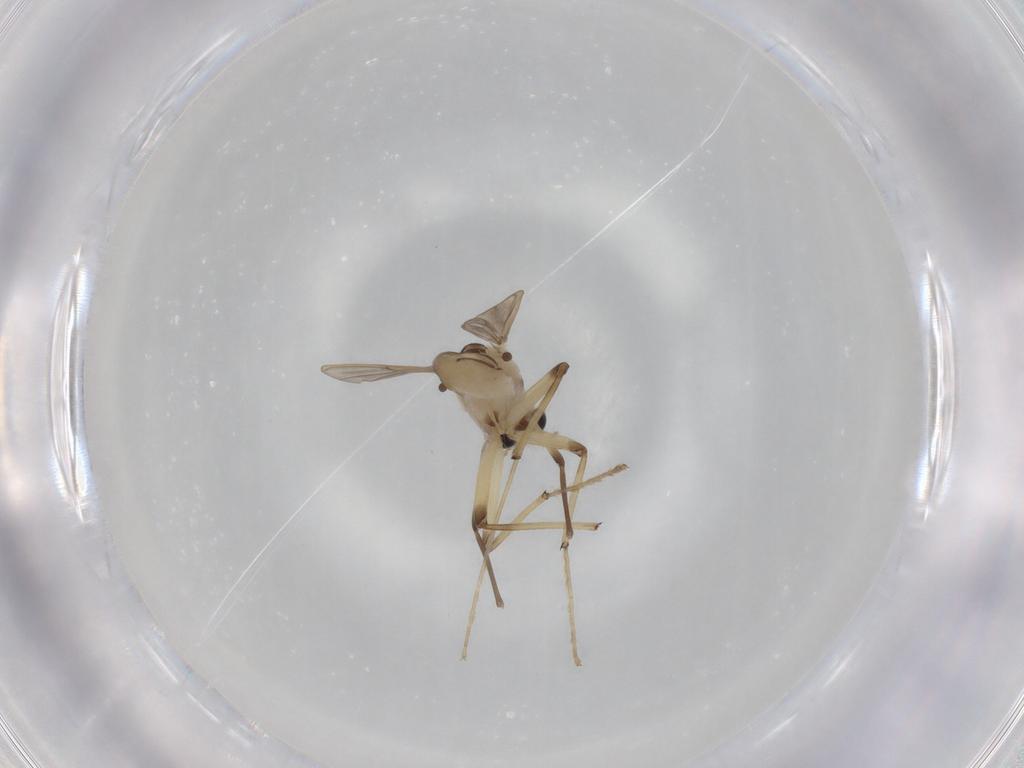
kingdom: Animalia
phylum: Arthropoda
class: Insecta
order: Diptera
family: Chironomidae
